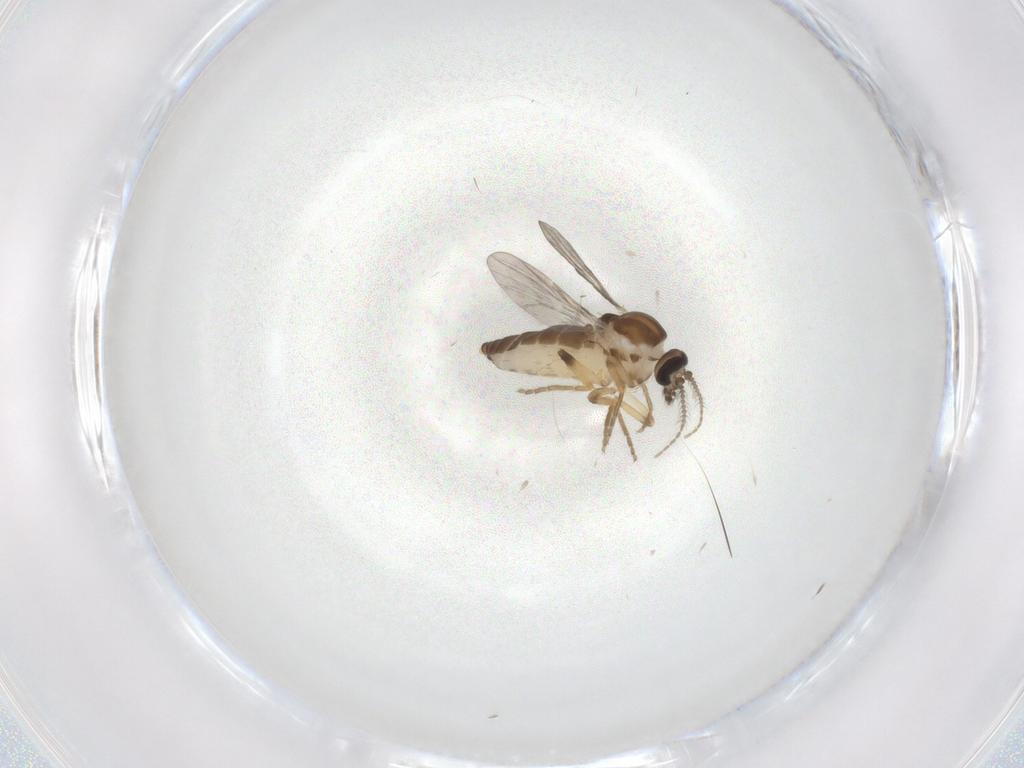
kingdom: Animalia
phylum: Arthropoda
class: Insecta
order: Diptera
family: Ceratopogonidae
